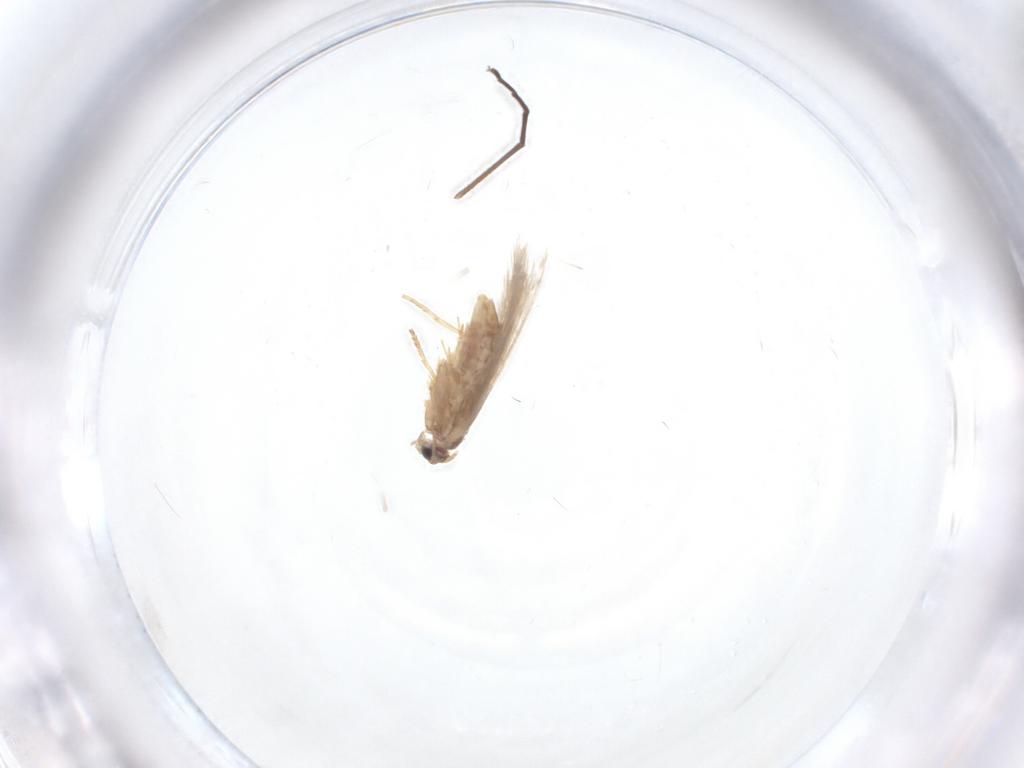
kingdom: Animalia
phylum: Arthropoda
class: Insecta
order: Lepidoptera
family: Nepticulidae
